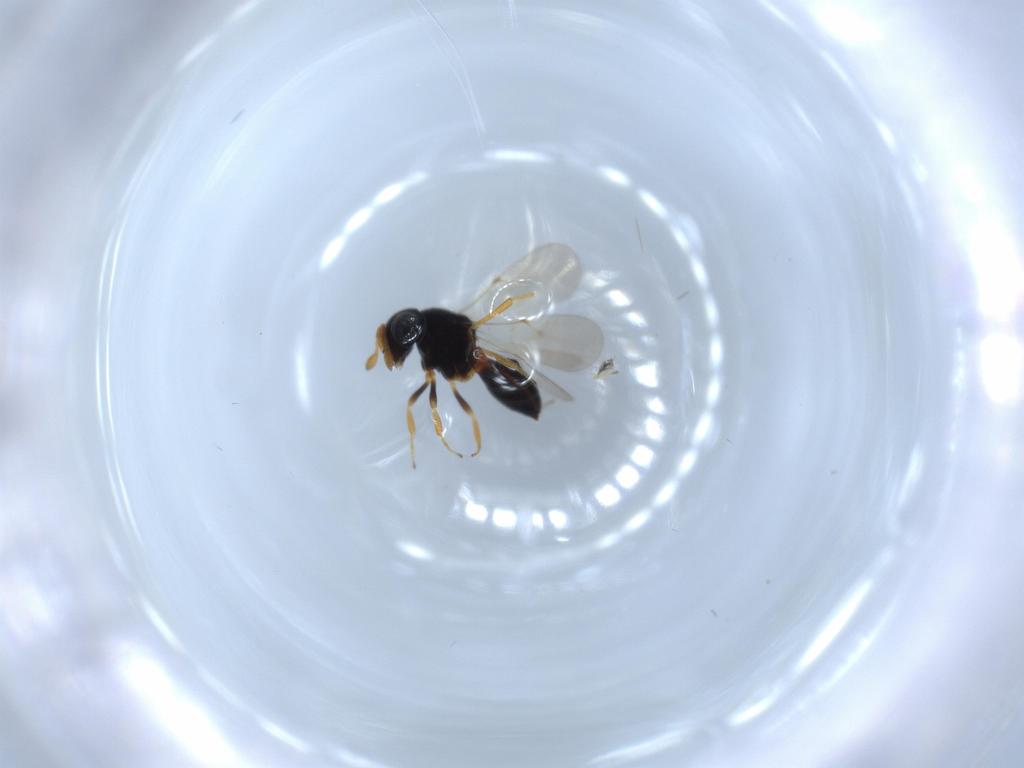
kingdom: Animalia
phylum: Arthropoda
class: Insecta
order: Hymenoptera
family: Scelionidae
